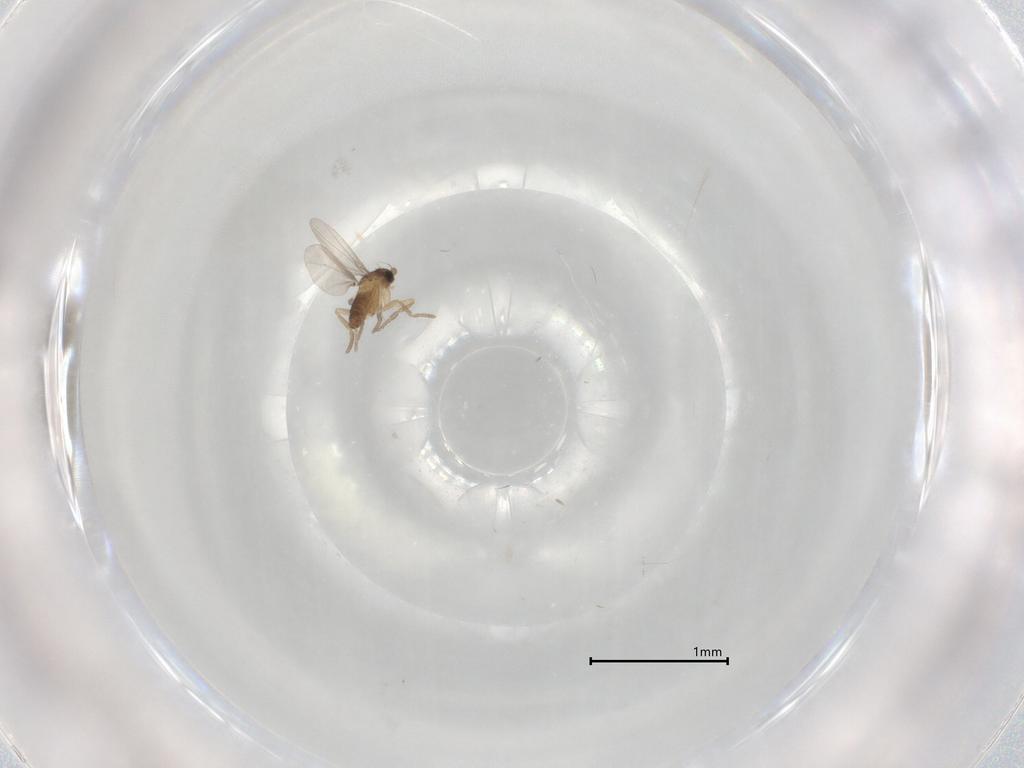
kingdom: Animalia
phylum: Arthropoda
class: Insecta
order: Diptera
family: Phoridae
